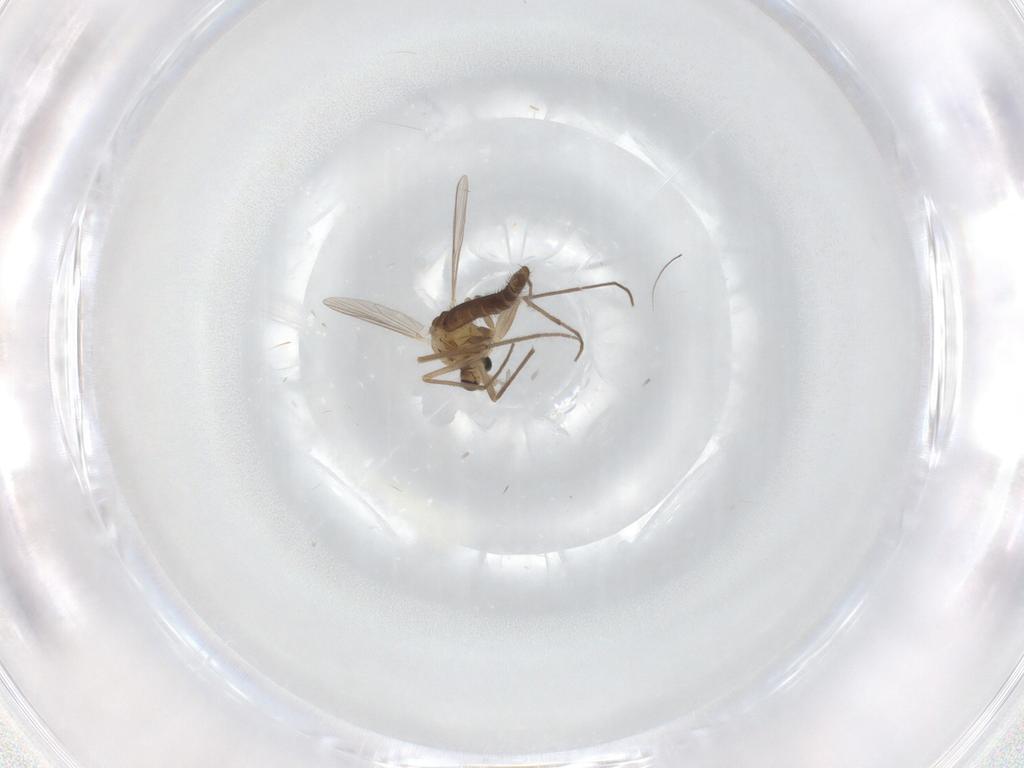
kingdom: Animalia
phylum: Arthropoda
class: Insecta
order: Diptera
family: Chironomidae
